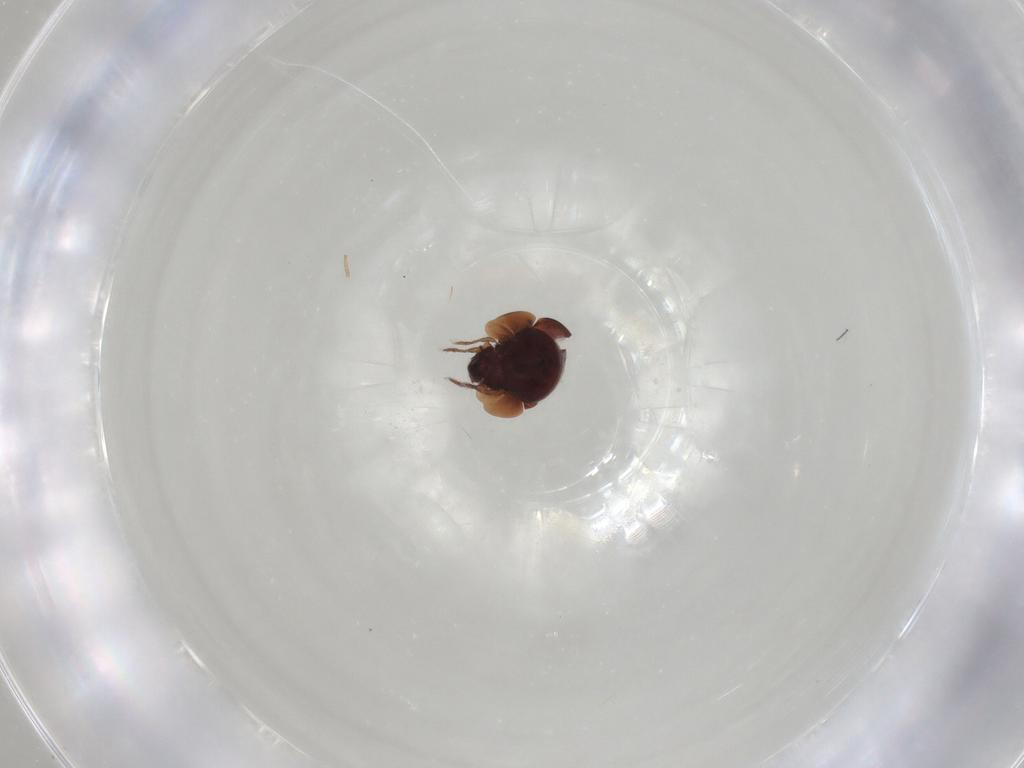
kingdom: Animalia
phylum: Arthropoda
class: Arachnida
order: Sarcoptiformes
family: Galumnidae
